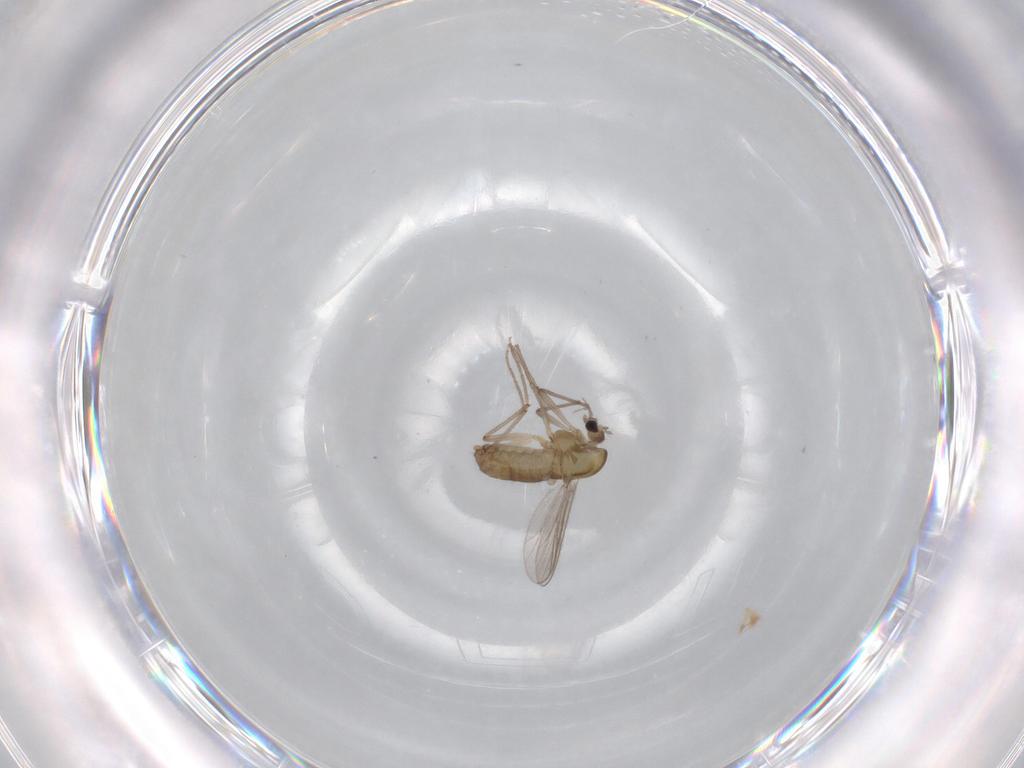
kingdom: Animalia
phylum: Arthropoda
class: Insecta
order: Diptera
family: Chironomidae
